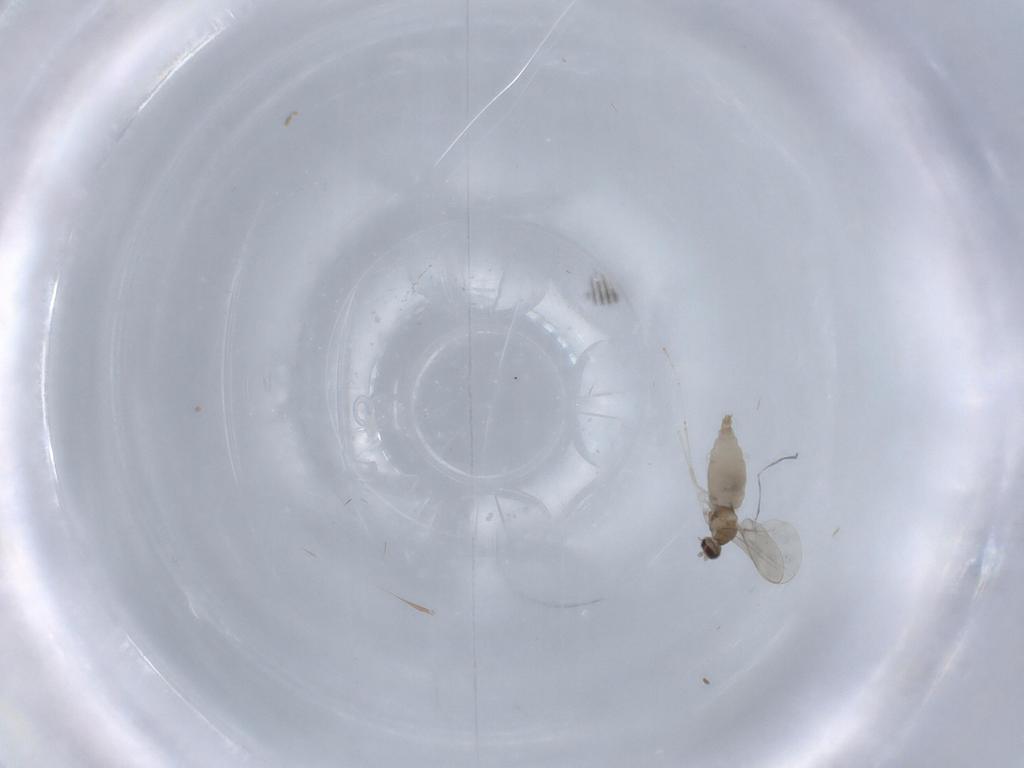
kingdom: Animalia
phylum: Arthropoda
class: Insecta
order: Diptera
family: Cecidomyiidae
